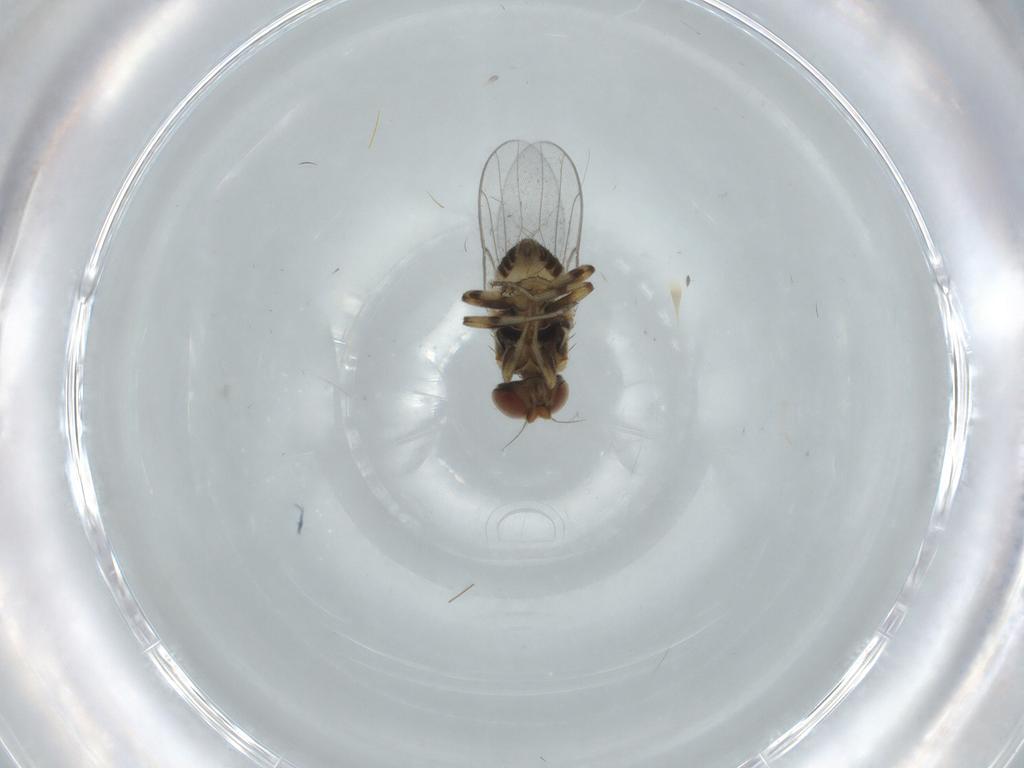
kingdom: Animalia
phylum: Arthropoda
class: Insecta
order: Diptera
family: Chloropidae
